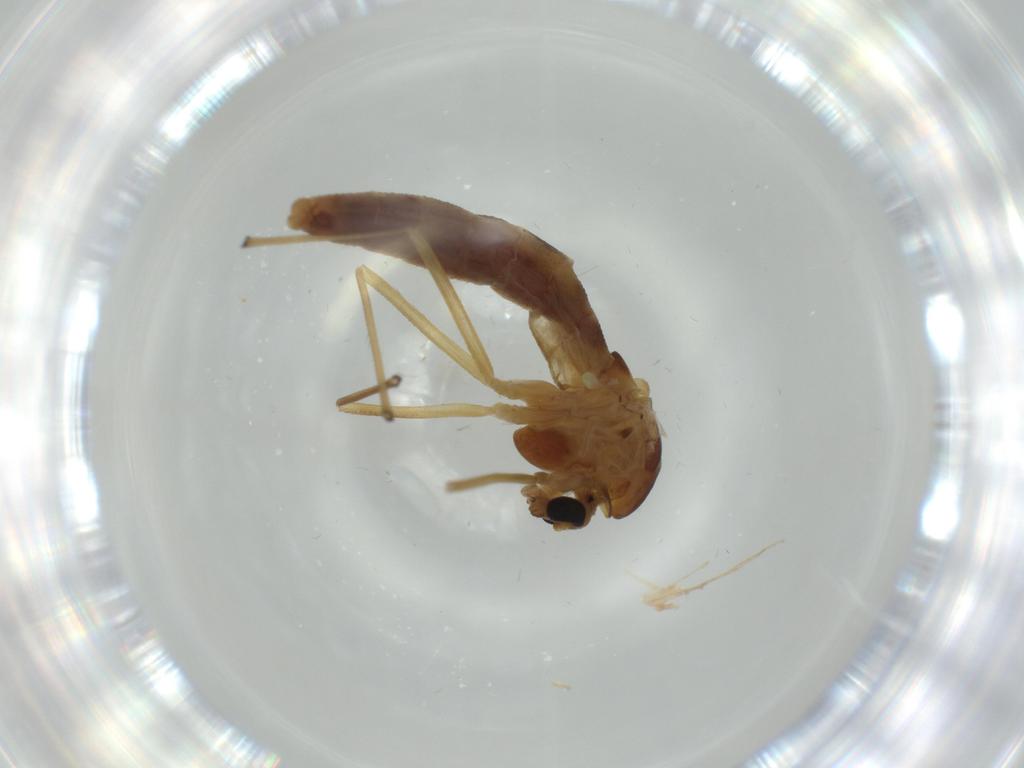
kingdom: Animalia
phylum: Arthropoda
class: Insecta
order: Diptera
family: Chironomidae
